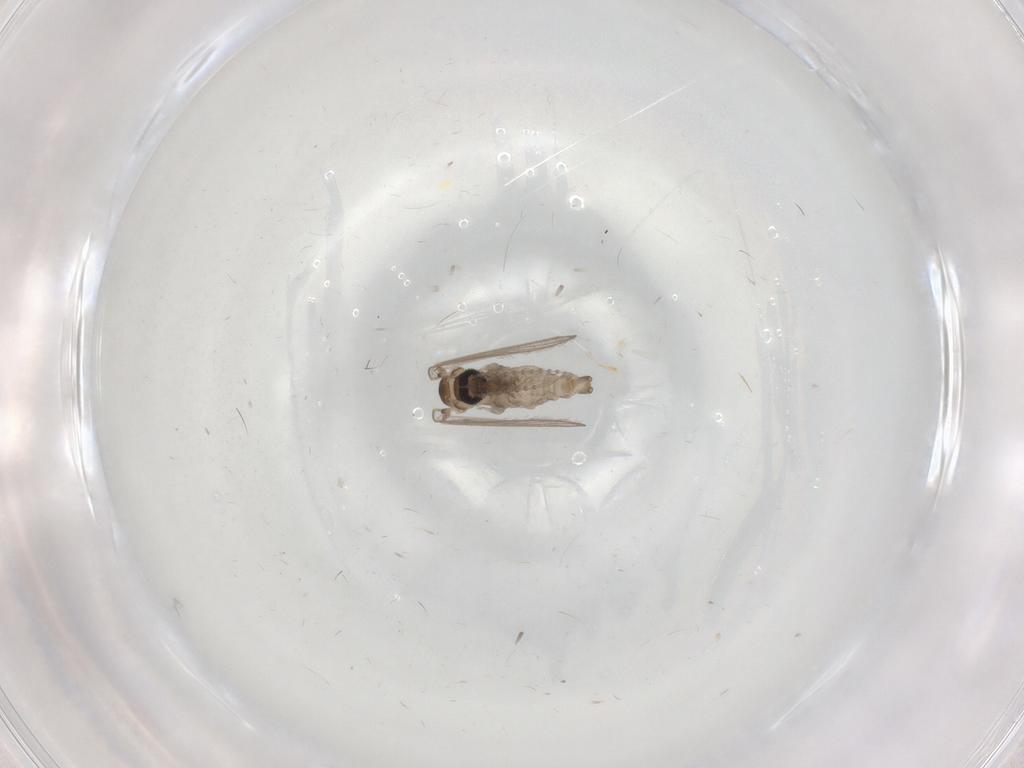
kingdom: Animalia
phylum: Arthropoda
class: Insecta
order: Diptera
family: Psychodidae
